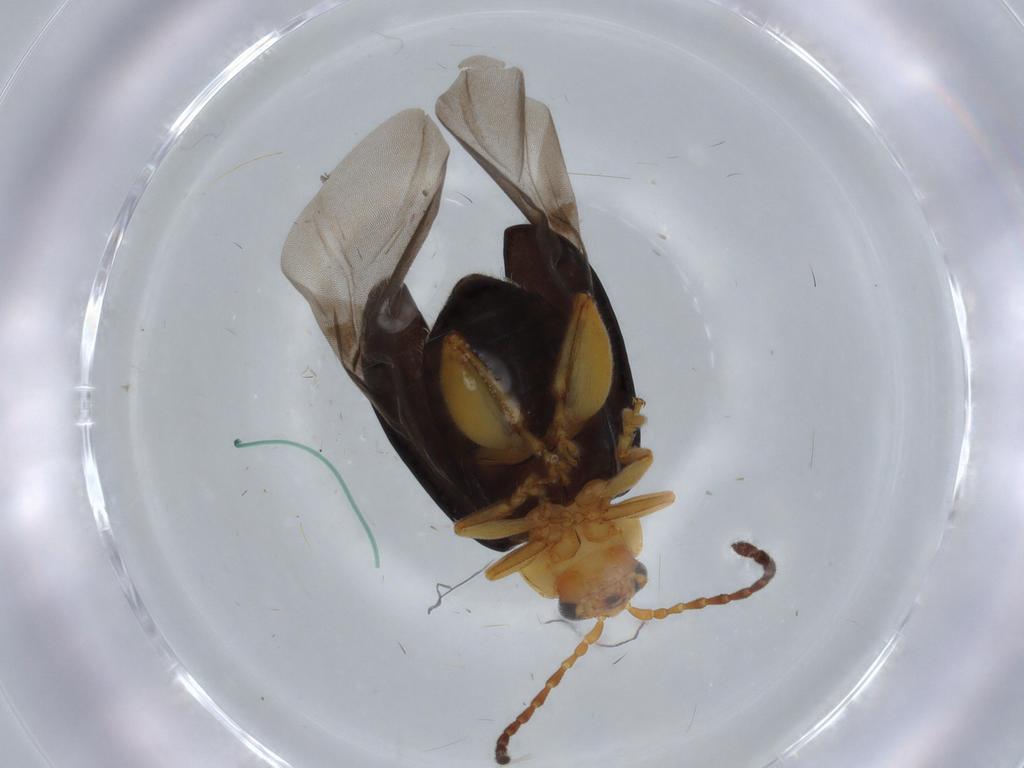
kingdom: Animalia
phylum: Arthropoda
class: Insecta
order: Coleoptera
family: Chrysomelidae
